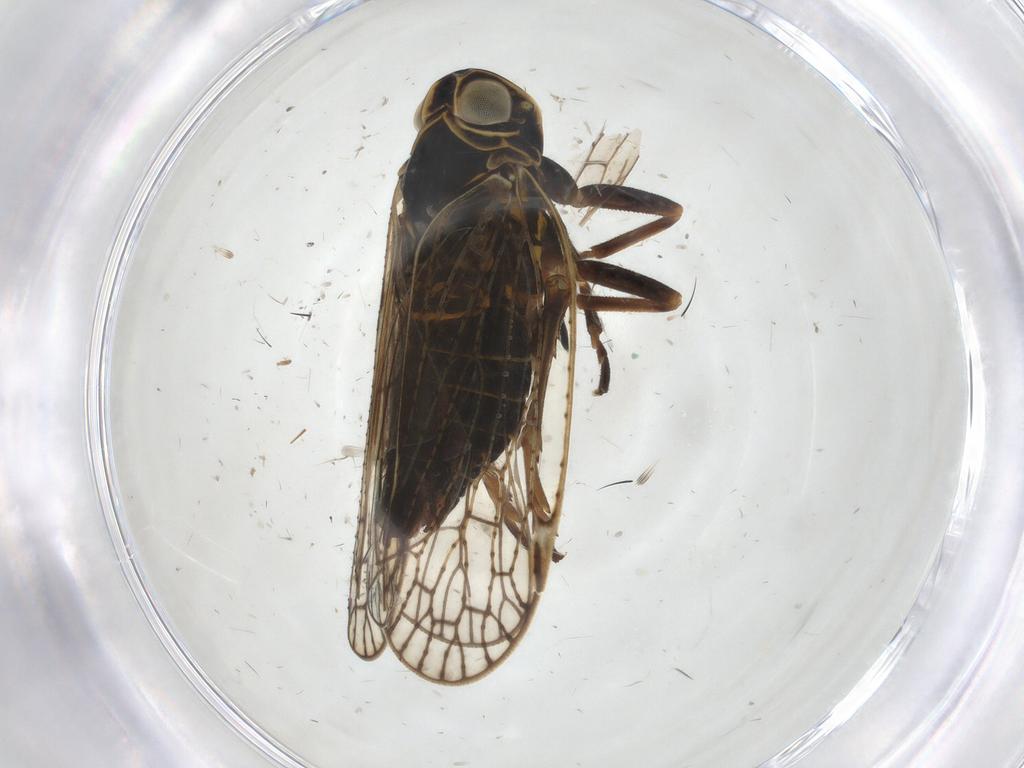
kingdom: Animalia
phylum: Arthropoda
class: Insecta
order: Hemiptera
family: Cixiidae
